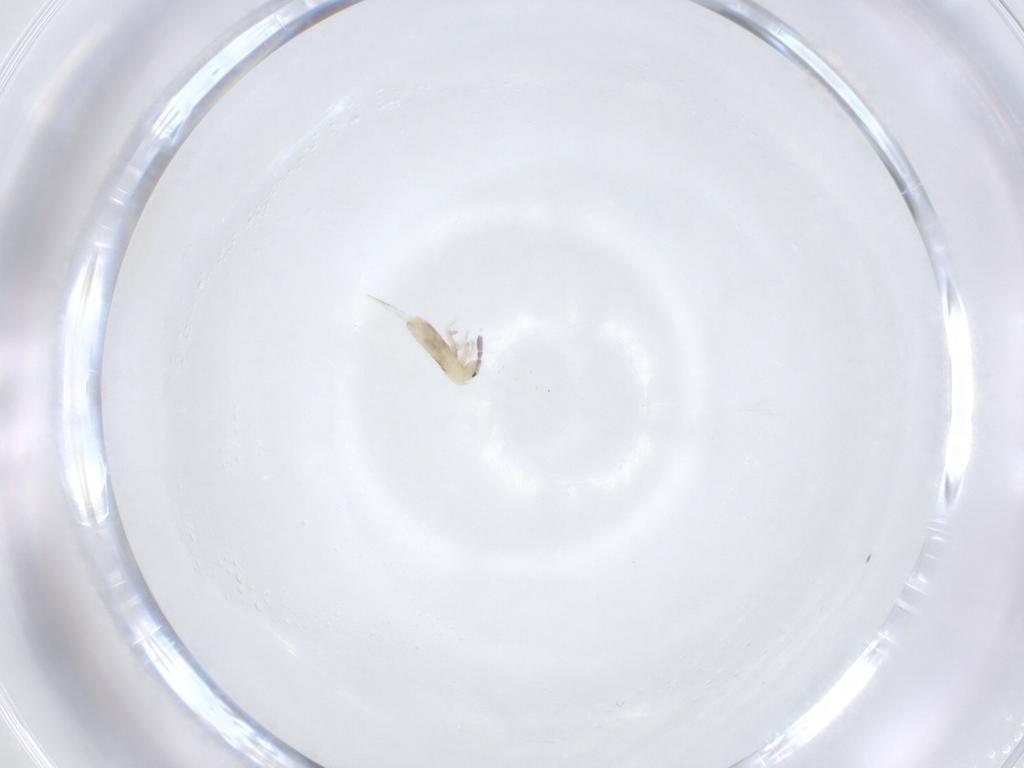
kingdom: Animalia
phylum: Arthropoda
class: Collembola
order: Entomobryomorpha
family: Entomobryidae
